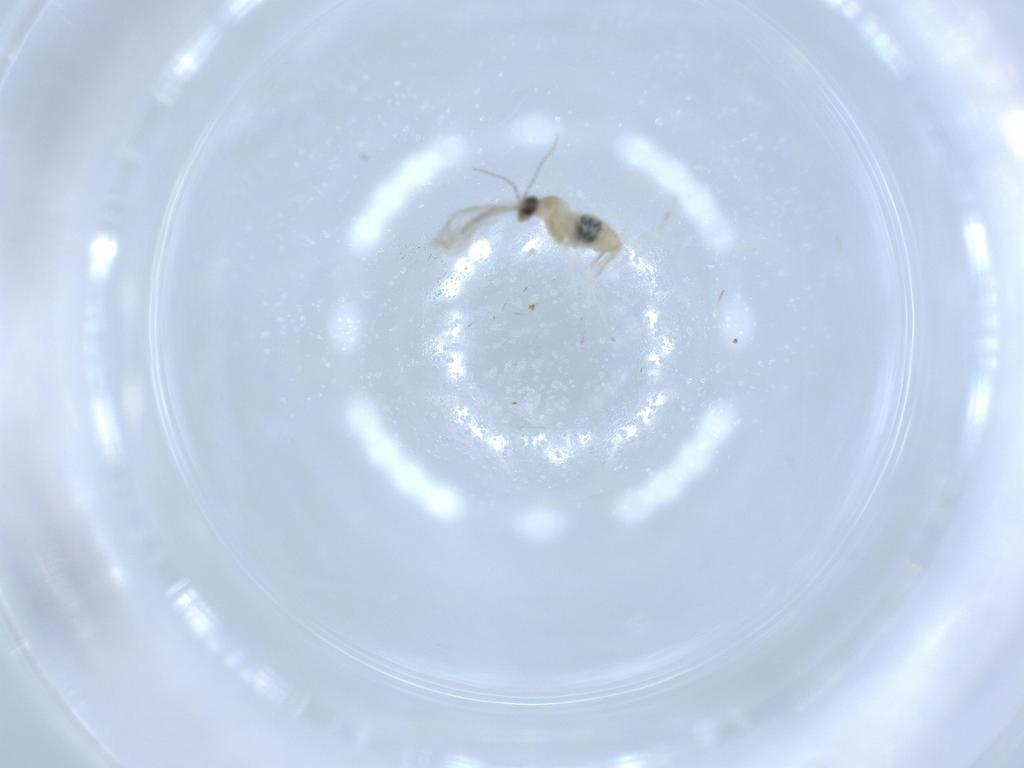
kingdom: Animalia
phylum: Arthropoda
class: Insecta
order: Diptera
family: Cecidomyiidae
